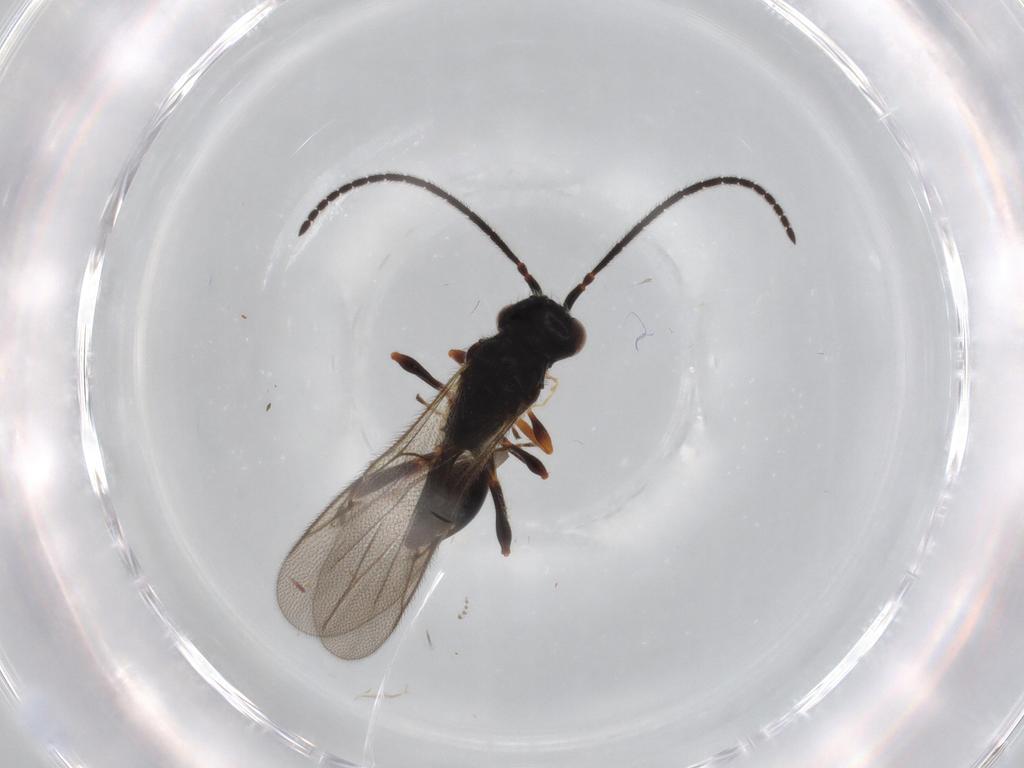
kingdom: Animalia
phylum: Arthropoda
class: Insecta
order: Hymenoptera
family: Diapriidae
